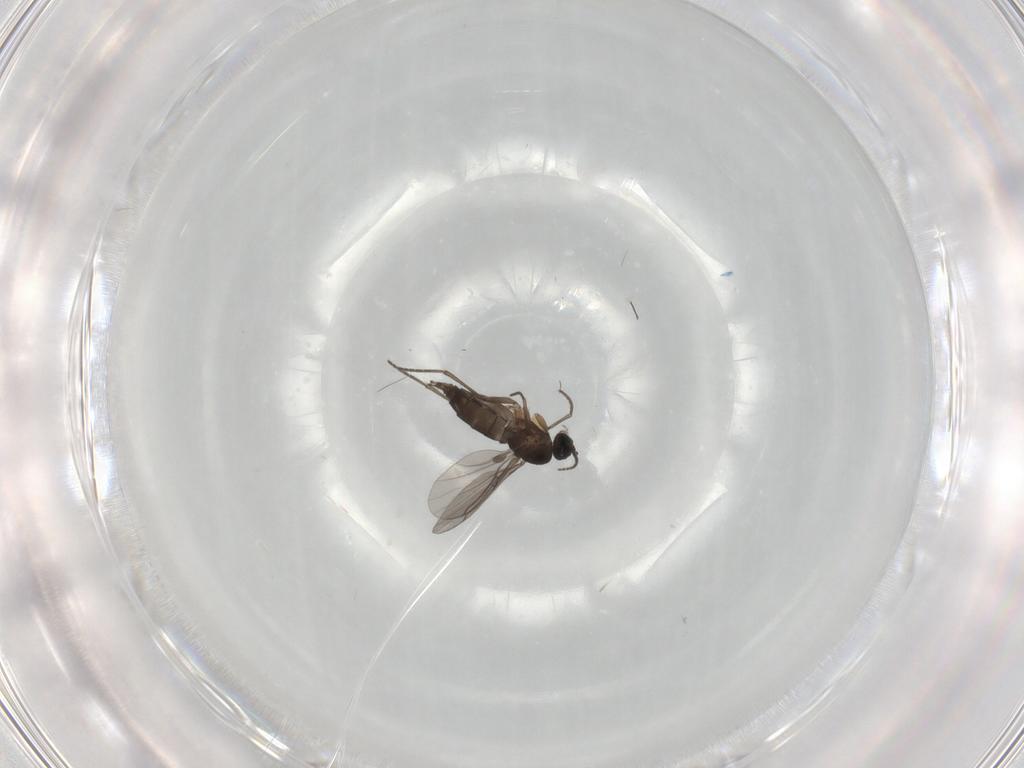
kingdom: Animalia
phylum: Arthropoda
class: Insecta
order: Diptera
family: Sciaridae
